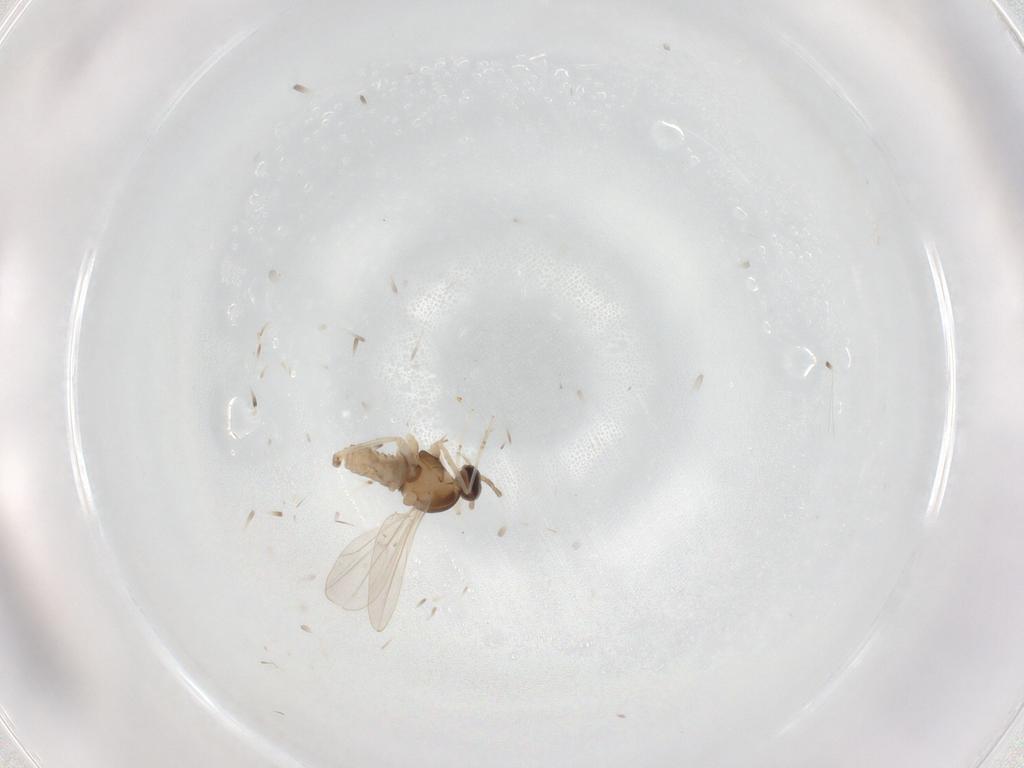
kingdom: Animalia
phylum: Arthropoda
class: Insecta
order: Diptera
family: Cecidomyiidae
